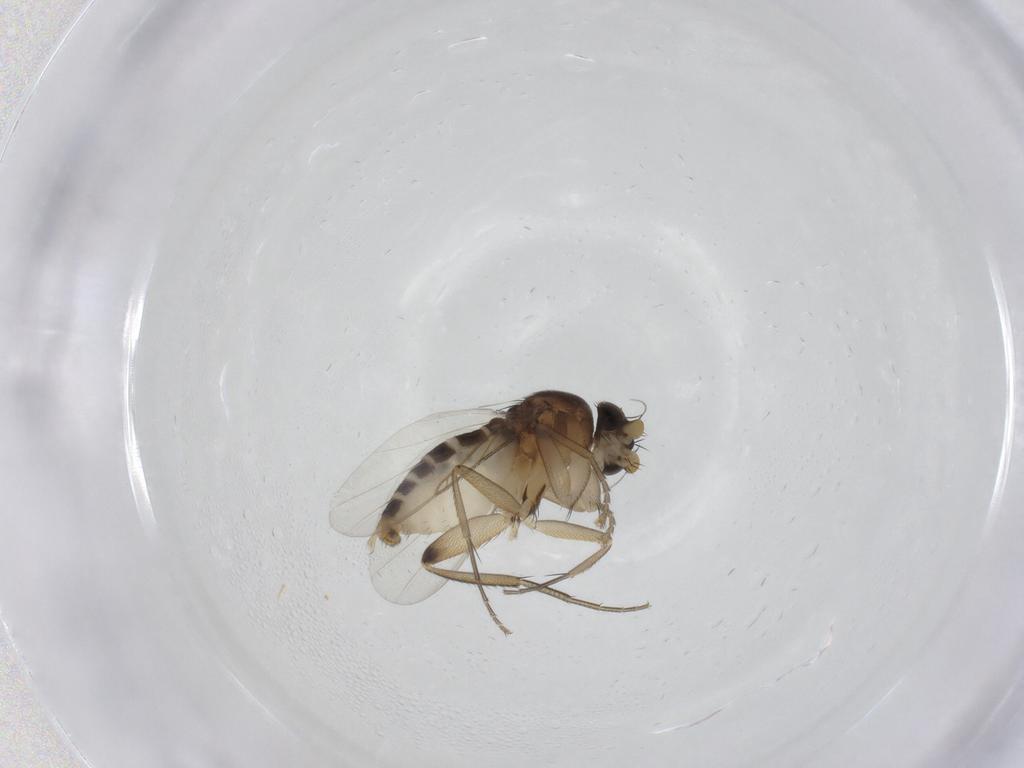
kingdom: Animalia
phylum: Arthropoda
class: Insecta
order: Diptera
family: Phoridae
